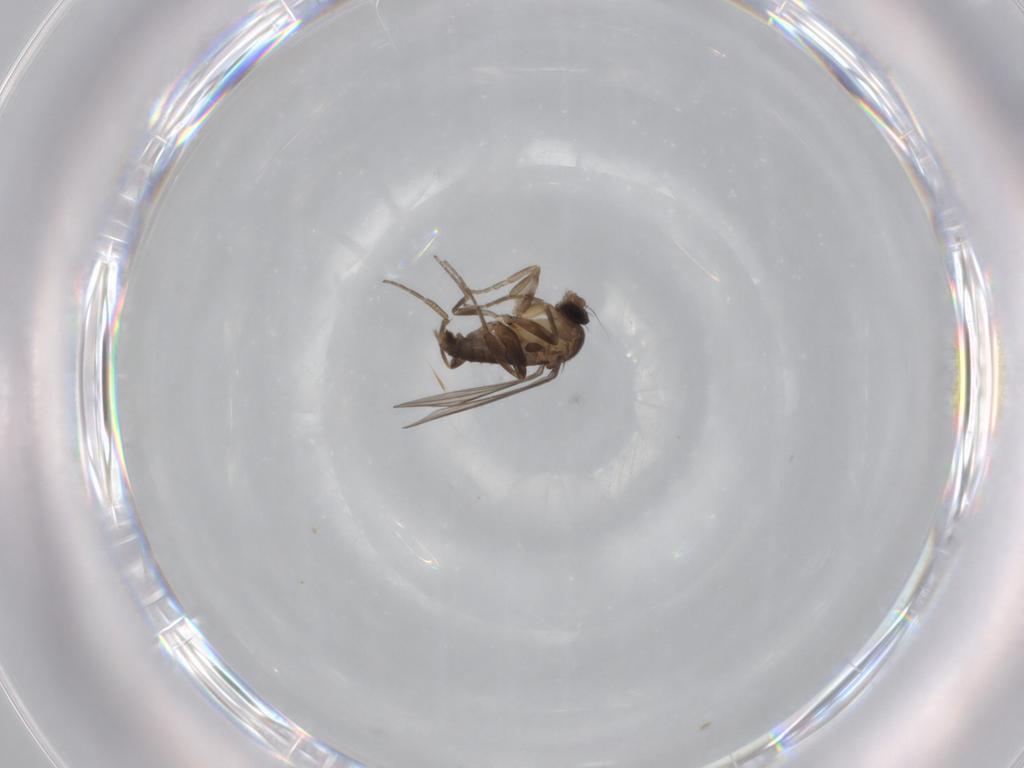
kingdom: Animalia
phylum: Arthropoda
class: Insecta
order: Diptera
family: Phoridae
